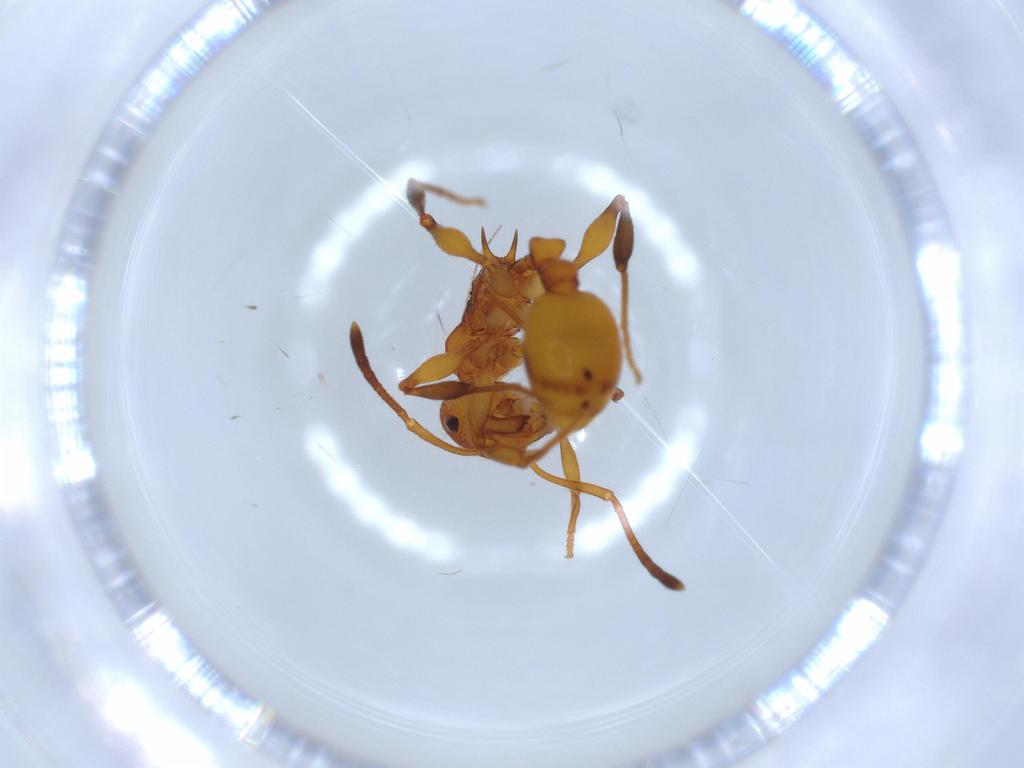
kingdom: Animalia
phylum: Arthropoda
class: Insecta
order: Hymenoptera
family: Formicidae
